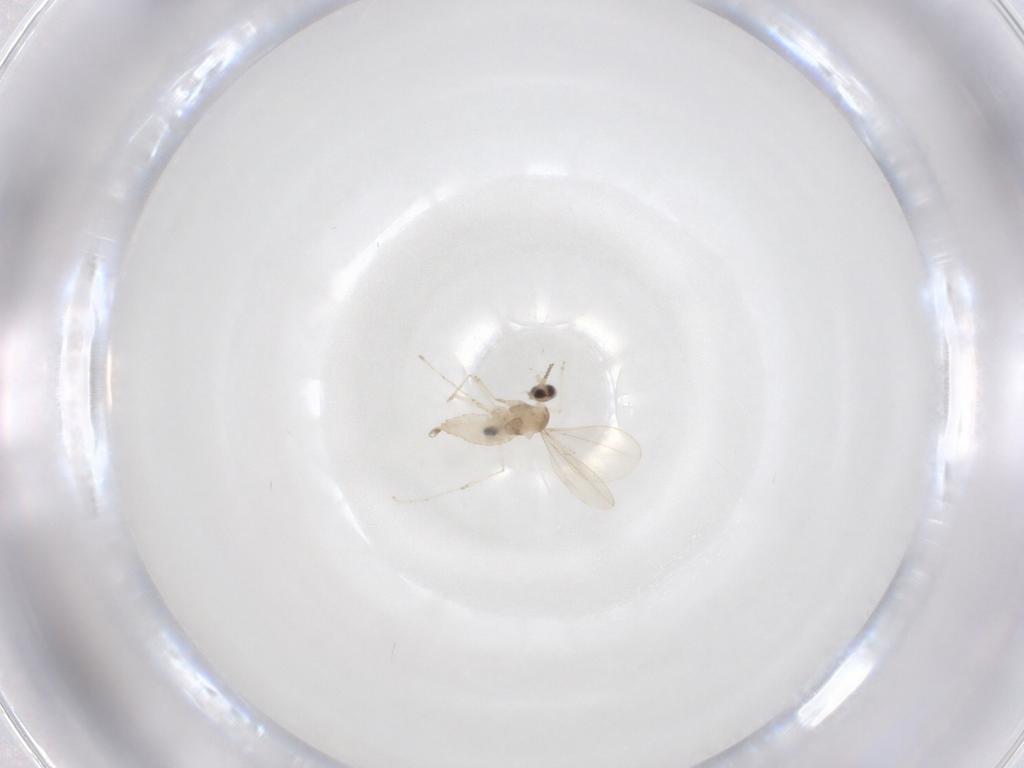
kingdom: Animalia
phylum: Arthropoda
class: Insecta
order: Diptera
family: Cecidomyiidae
